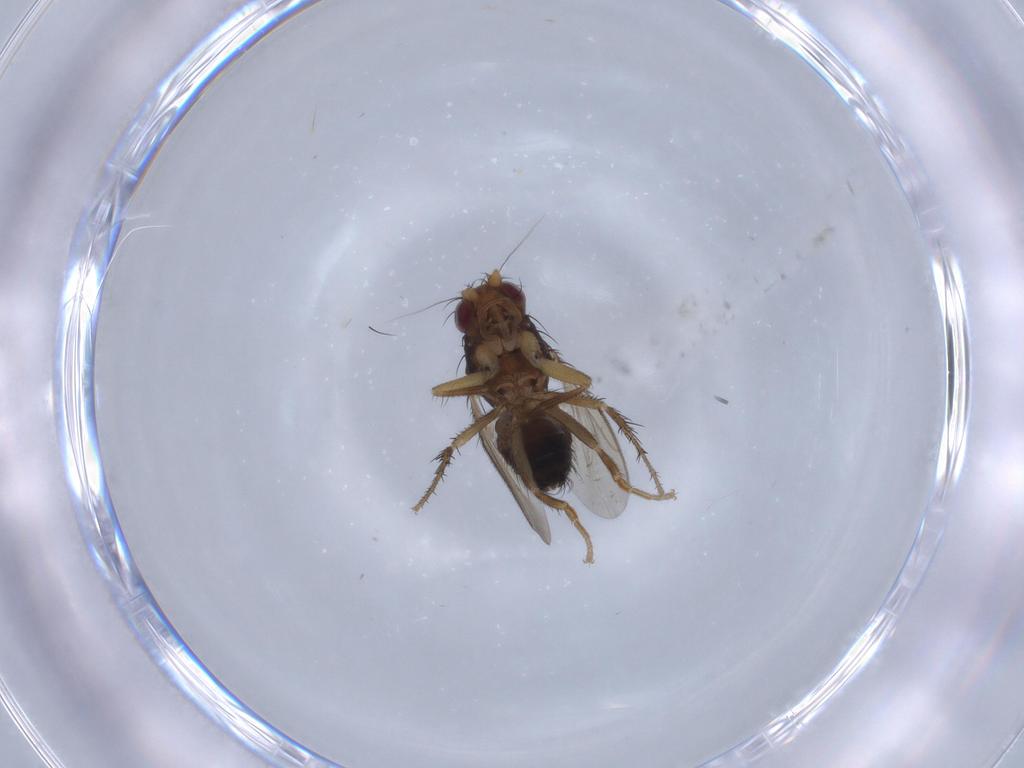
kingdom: Animalia
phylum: Arthropoda
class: Insecta
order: Diptera
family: Sphaeroceridae
